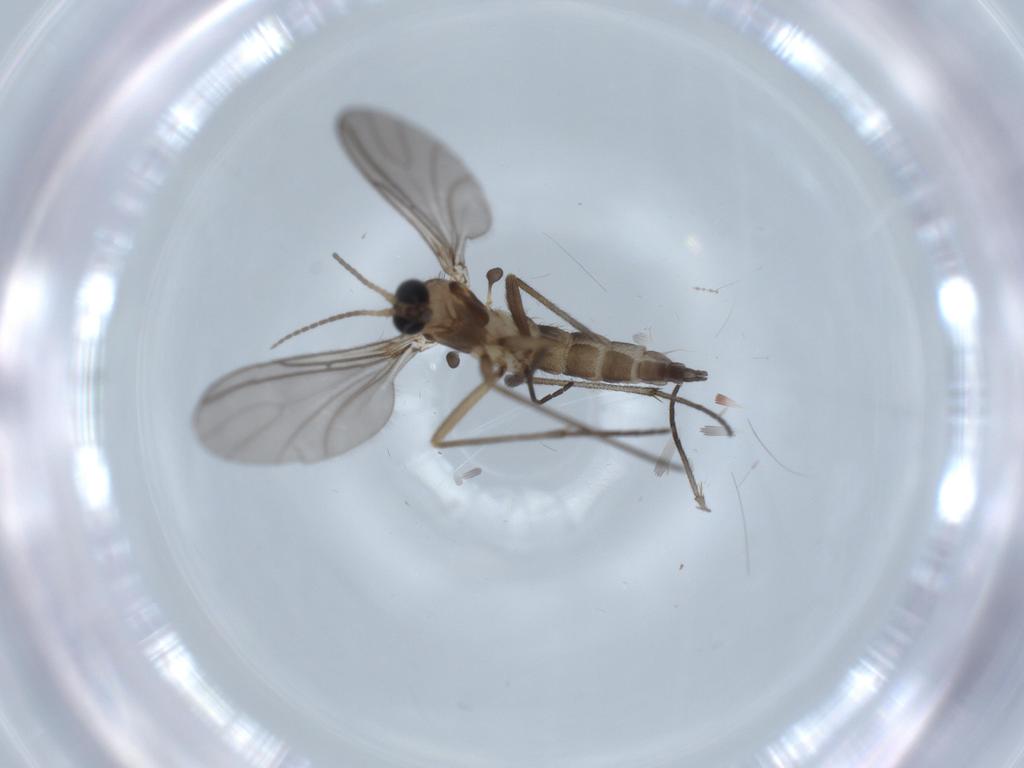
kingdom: Animalia
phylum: Arthropoda
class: Insecta
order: Diptera
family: Sciaridae
